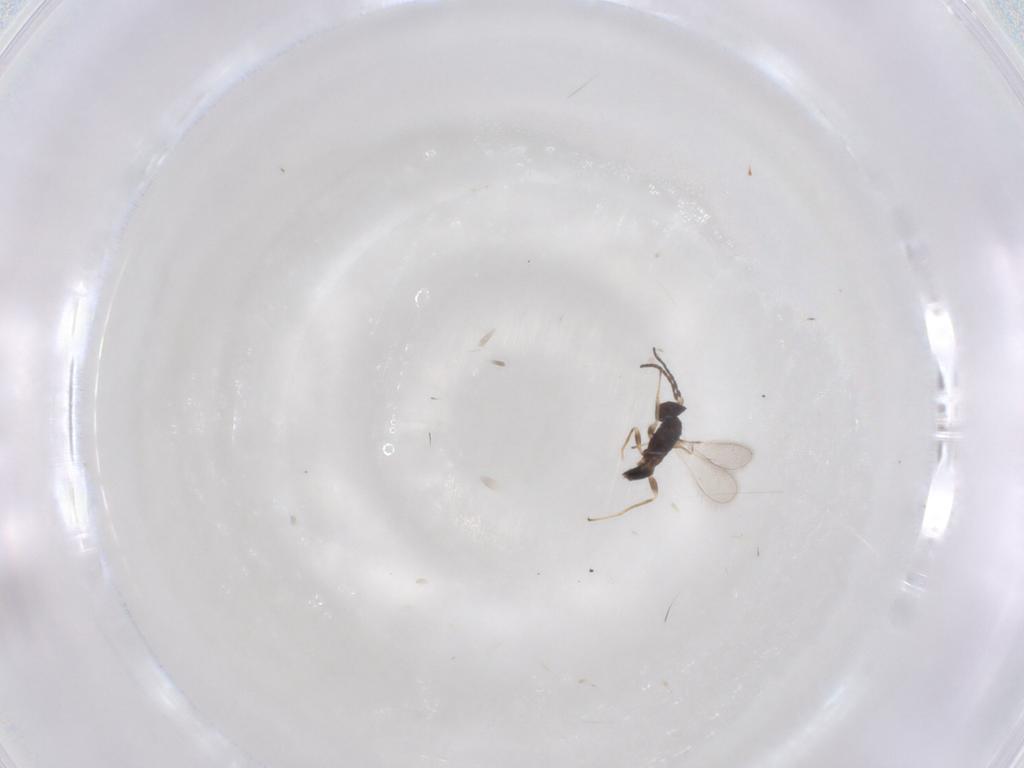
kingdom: Animalia
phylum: Arthropoda
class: Insecta
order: Hymenoptera
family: Mymaridae
